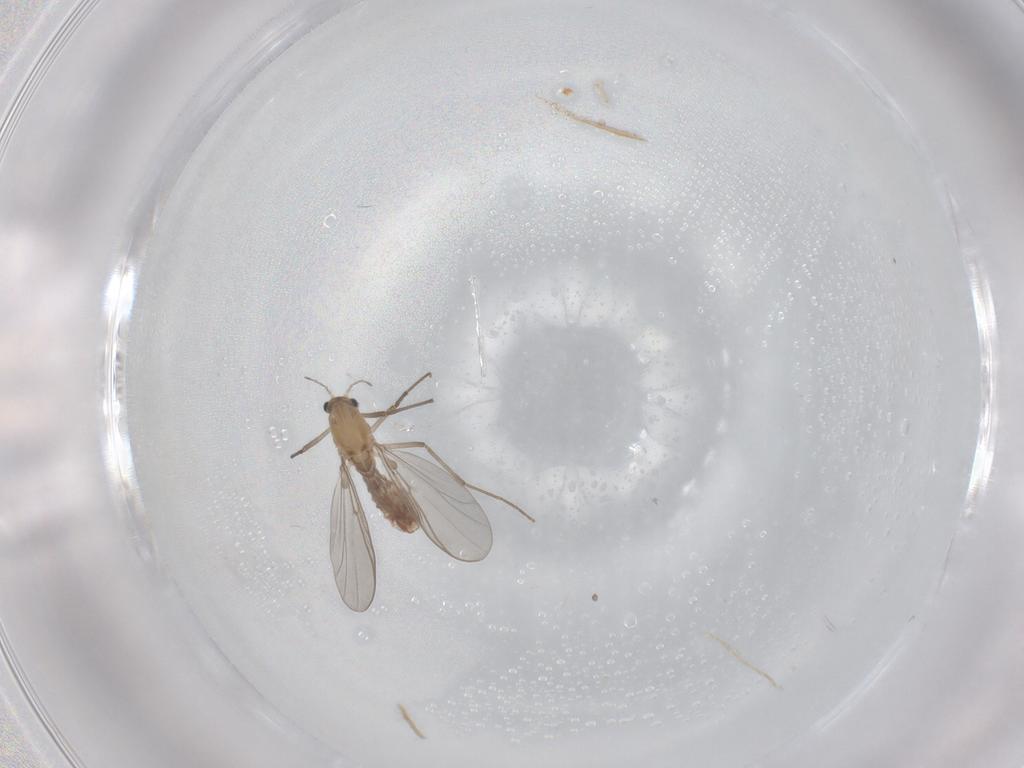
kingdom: Animalia
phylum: Arthropoda
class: Insecta
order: Diptera
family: Chironomidae
